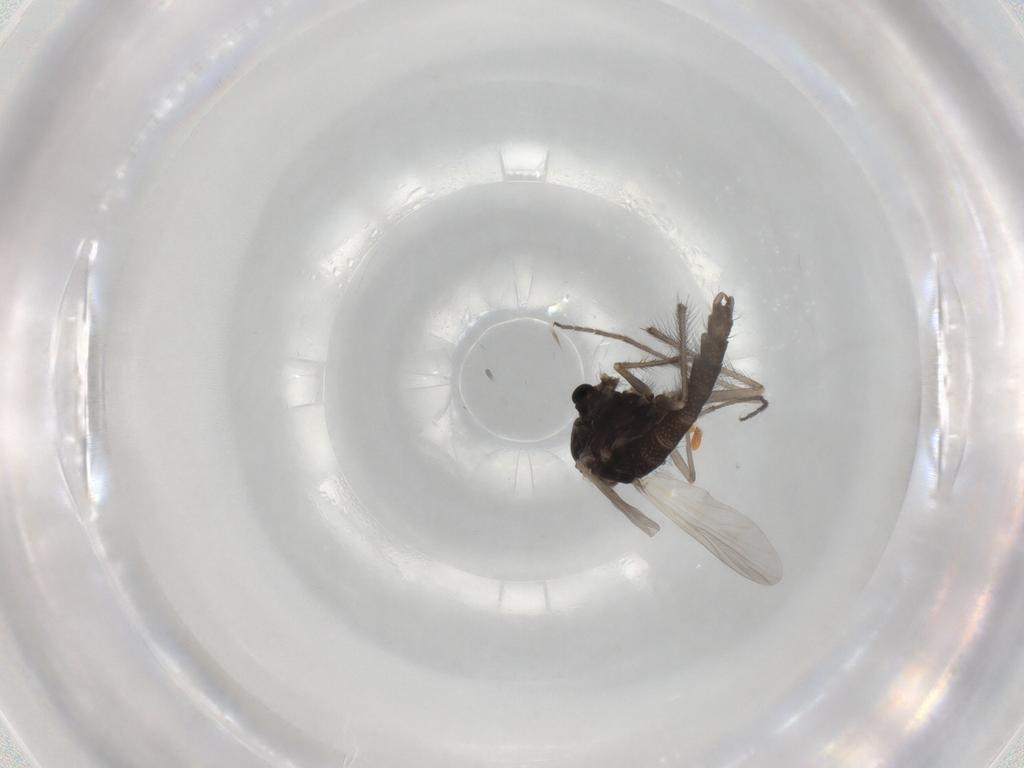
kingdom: Animalia
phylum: Arthropoda
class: Insecta
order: Diptera
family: Chironomidae
